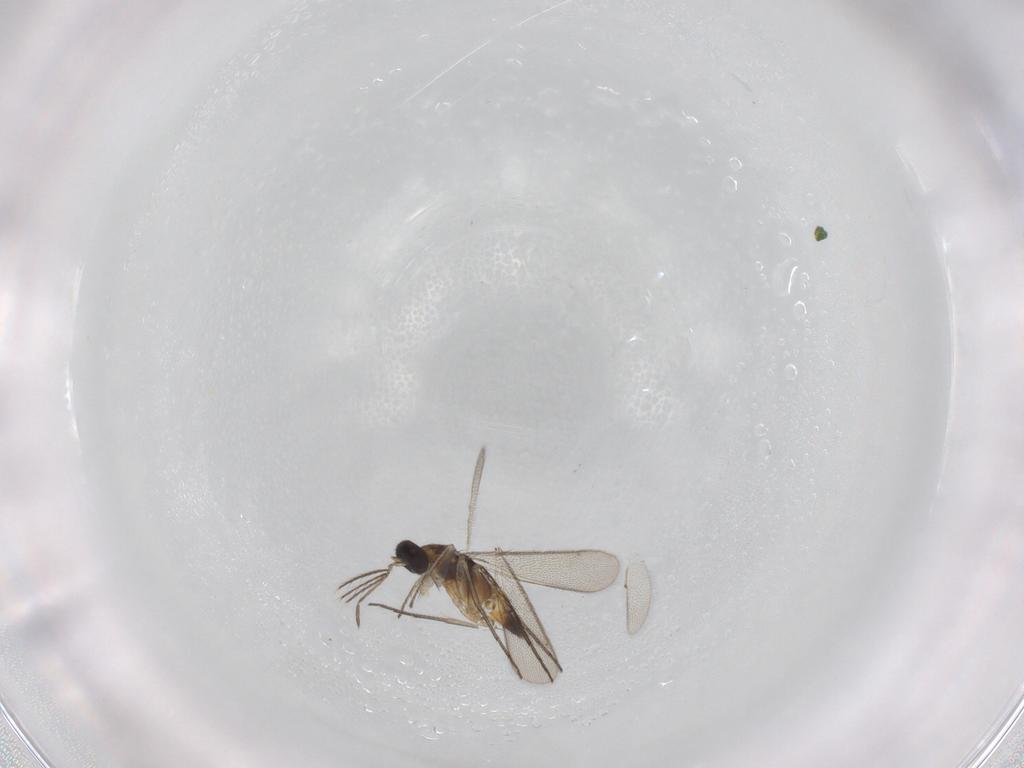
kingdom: Animalia
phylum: Arthropoda
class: Insecta
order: Hymenoptera
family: Eulophidae
